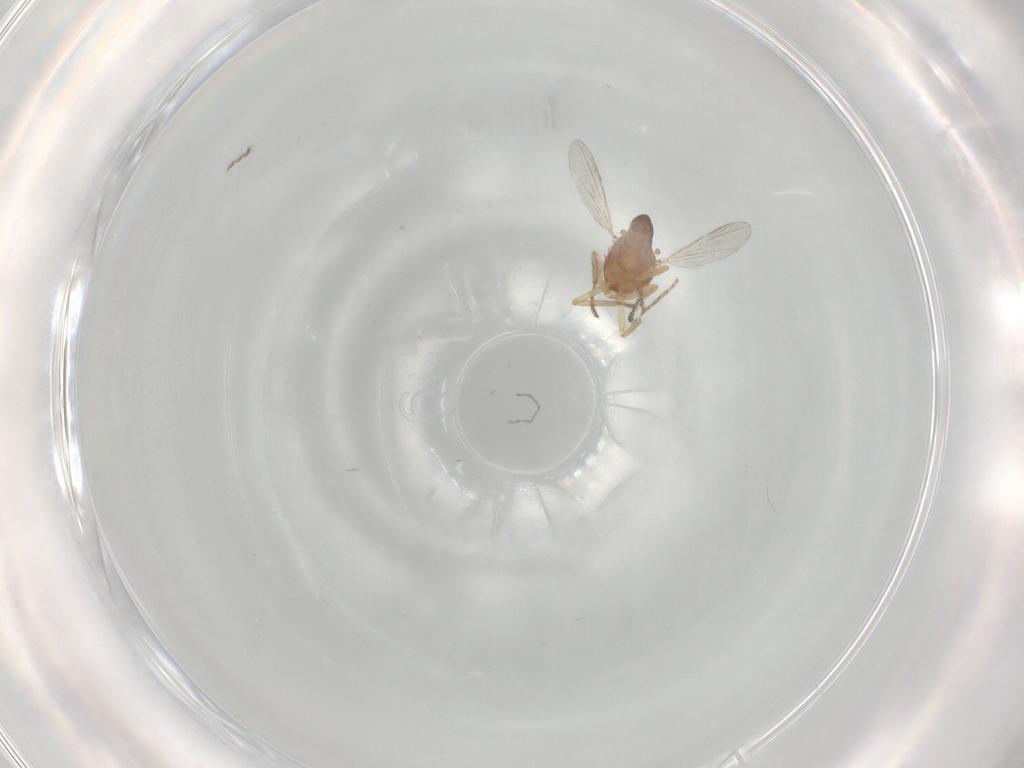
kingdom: Animalia
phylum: Arthropoda
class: Insecta
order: Diptera
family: Ceratopogonidae
